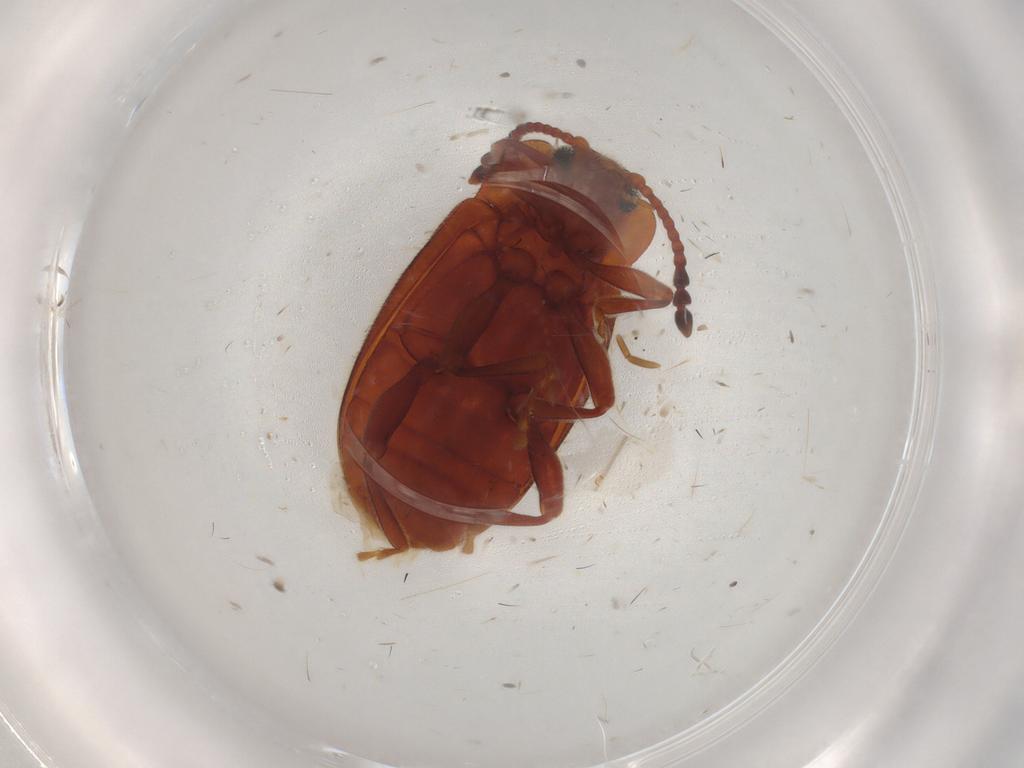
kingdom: Animalia
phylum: Arthropoda
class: Insecta
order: Coleoptera
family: Endomychidae
